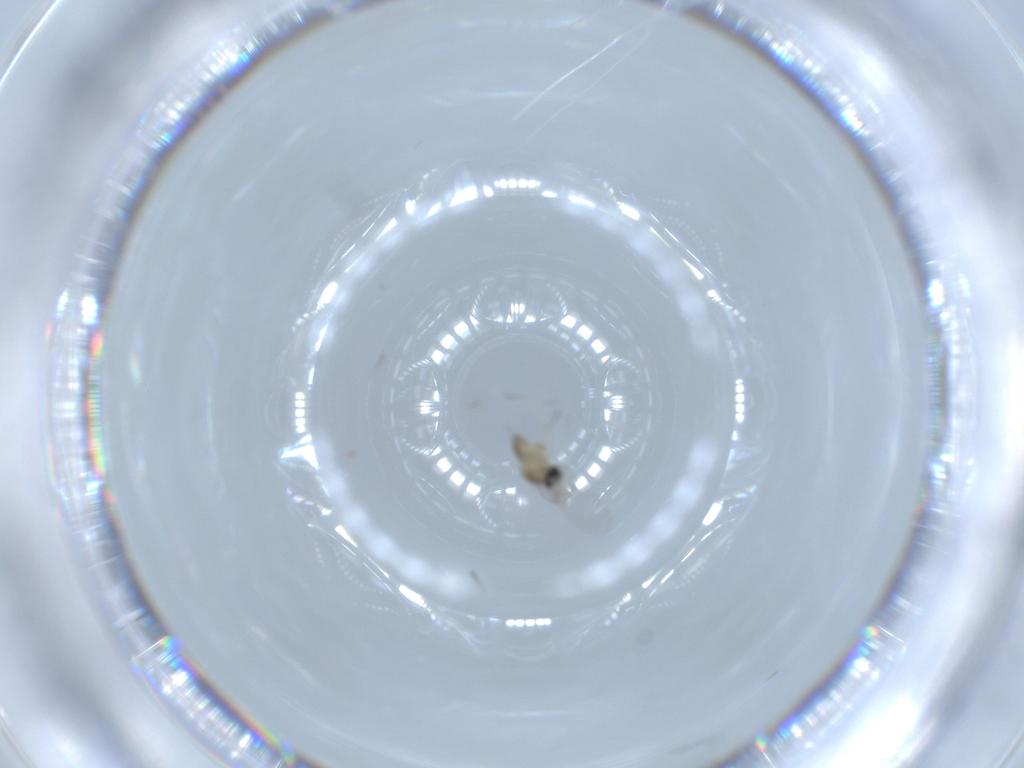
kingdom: Animalia
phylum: Arthropoda
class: Insecta
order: Diptera
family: Cecidomyiidae
